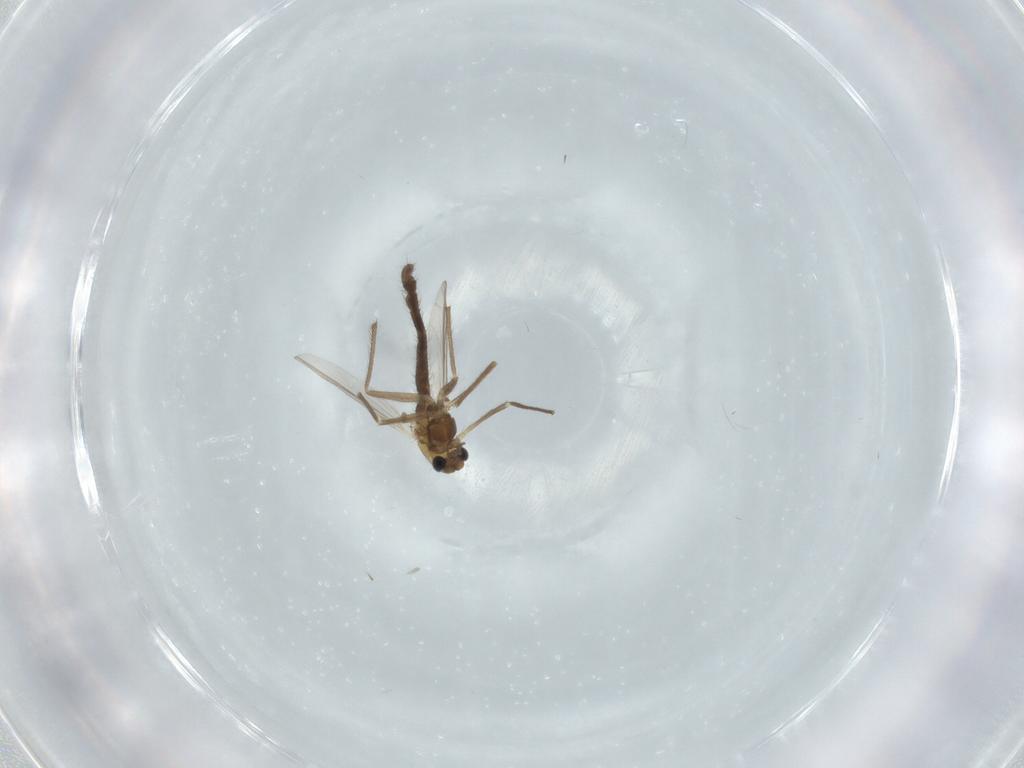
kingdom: Animalia
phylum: Arthropoda
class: Insecta
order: Diptera
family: Chironomidae
